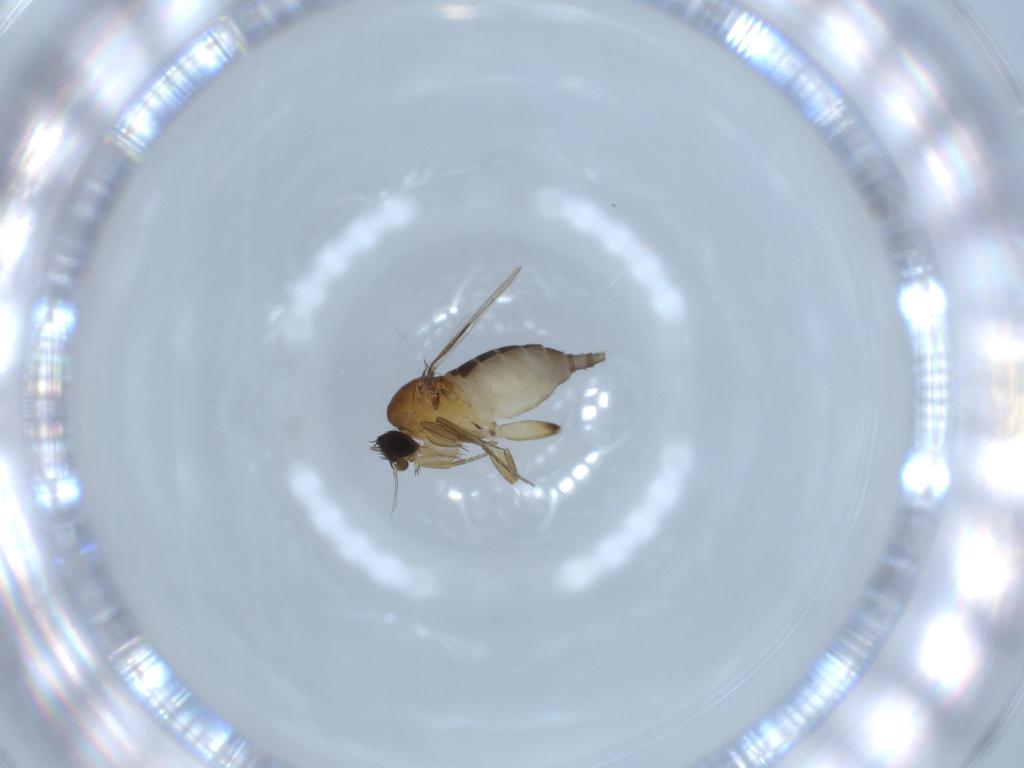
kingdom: Animalia
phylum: Arthropoda
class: Insecta
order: Diptera
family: Phoridae
